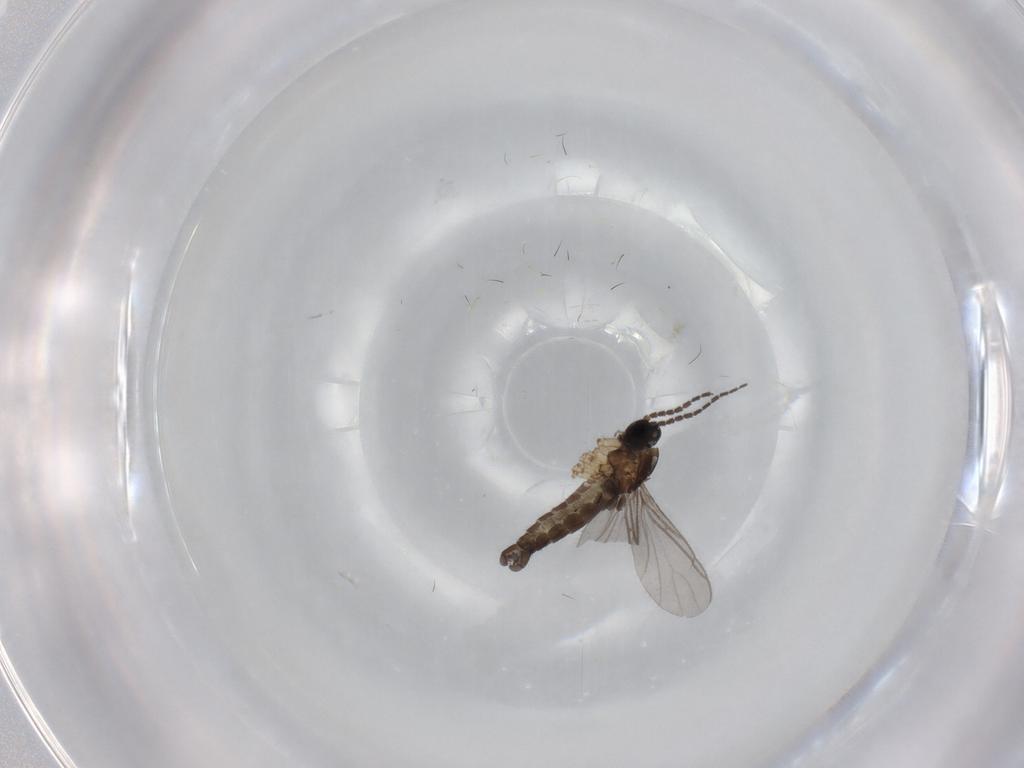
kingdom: Animalia
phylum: Arthropoda
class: Insecta
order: Diptera
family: Sciaridae
